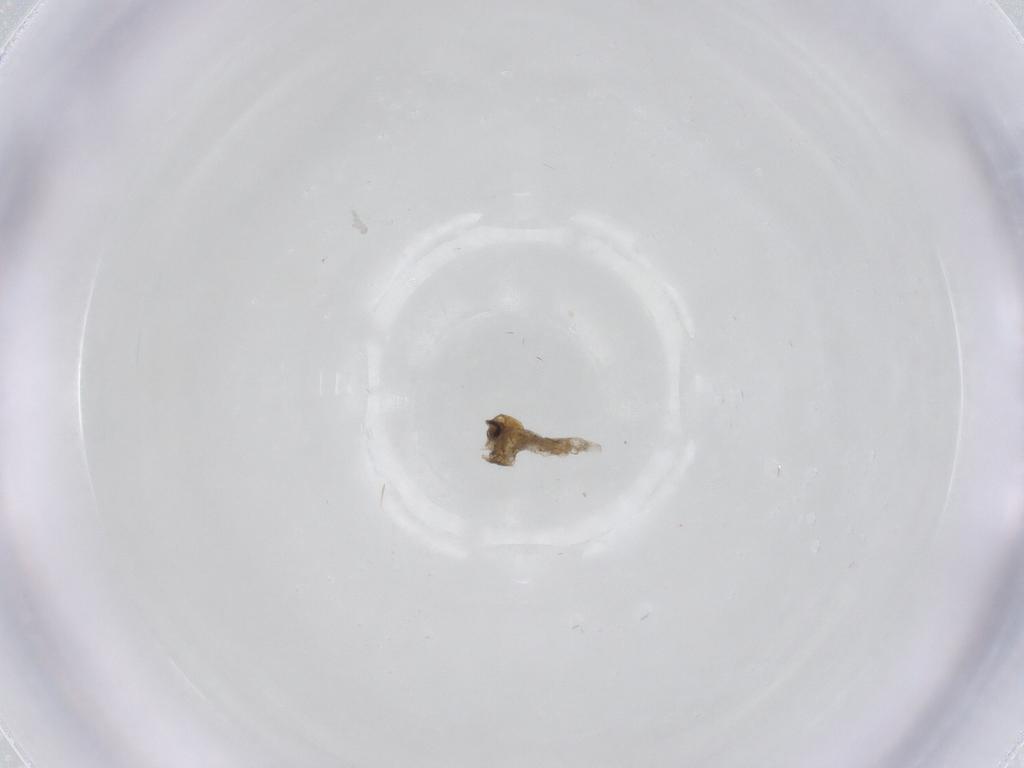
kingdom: Animalia
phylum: Arthropoda
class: Insecta
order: Diptera
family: Cecidomyiidae
